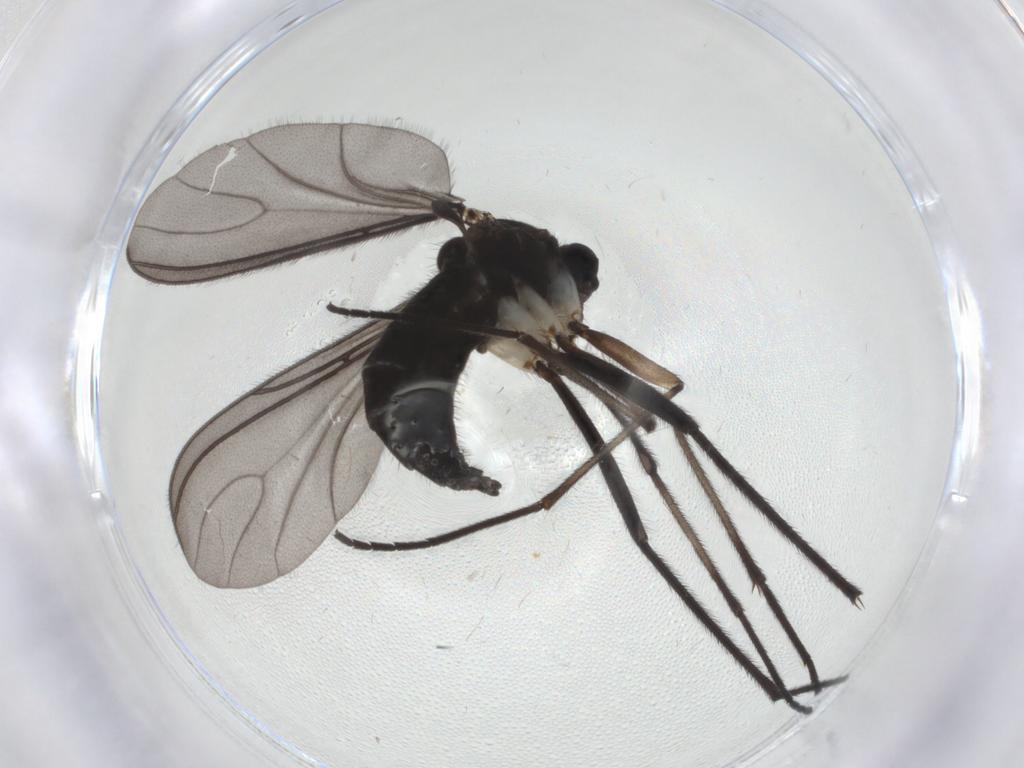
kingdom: Animalia
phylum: Arthropoda
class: Insecta
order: Diptera
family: Sciaridae
